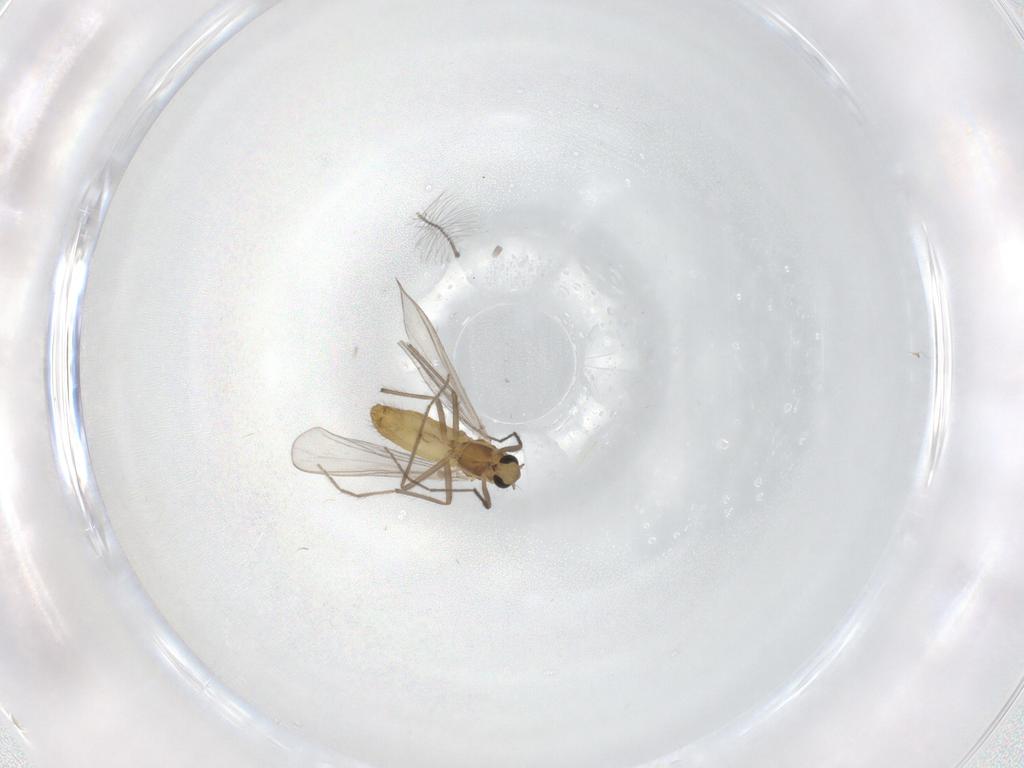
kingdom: Animalia
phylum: Arthropoda
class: Insecta
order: Diptera
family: Chironomidae
